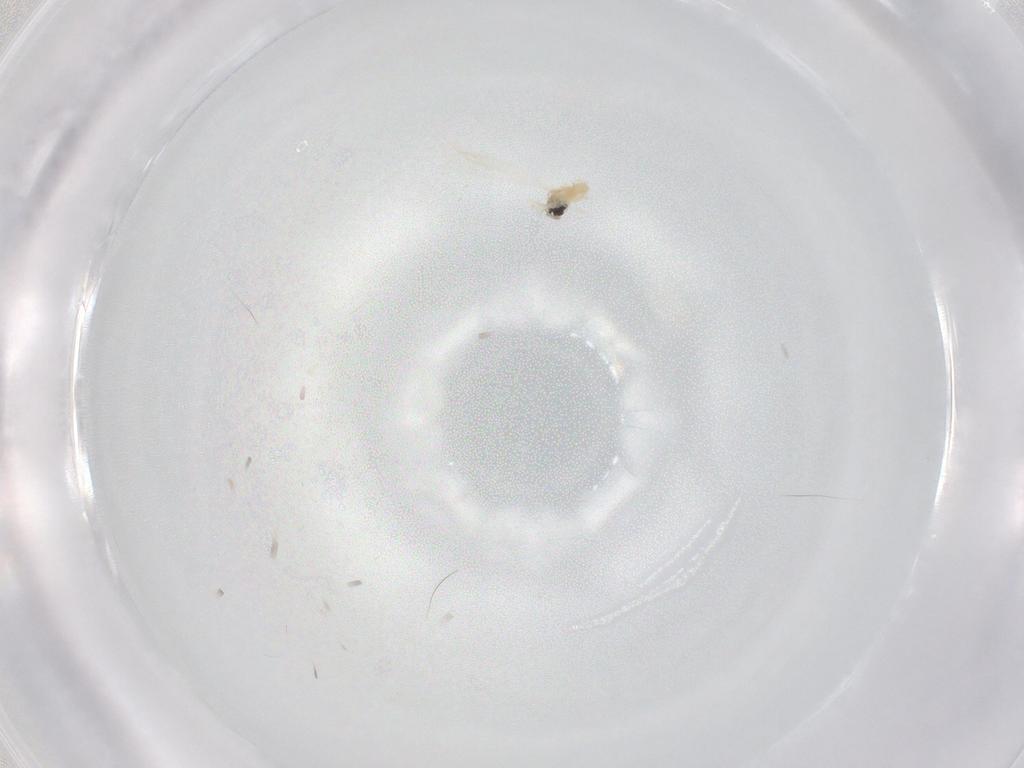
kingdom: Animalia
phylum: Arthropoda
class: Insecta
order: Diptera
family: Cecidomyiidae
